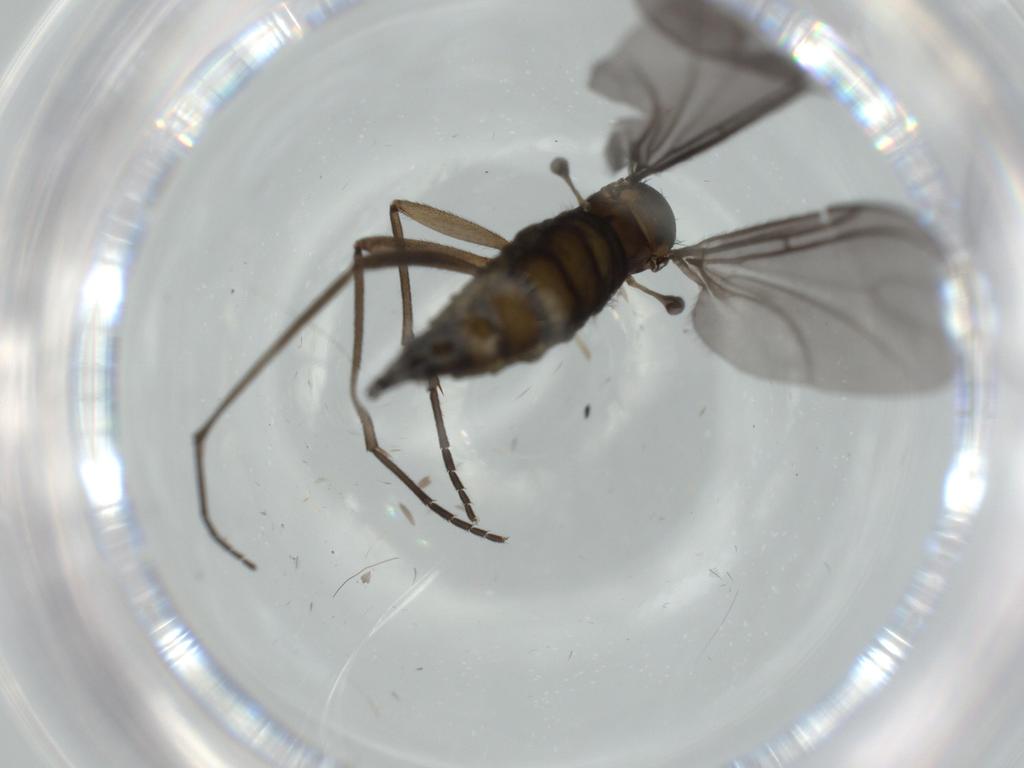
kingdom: Animalia
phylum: Arthropoda
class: Insecta
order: Diptera
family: Sciaridae
